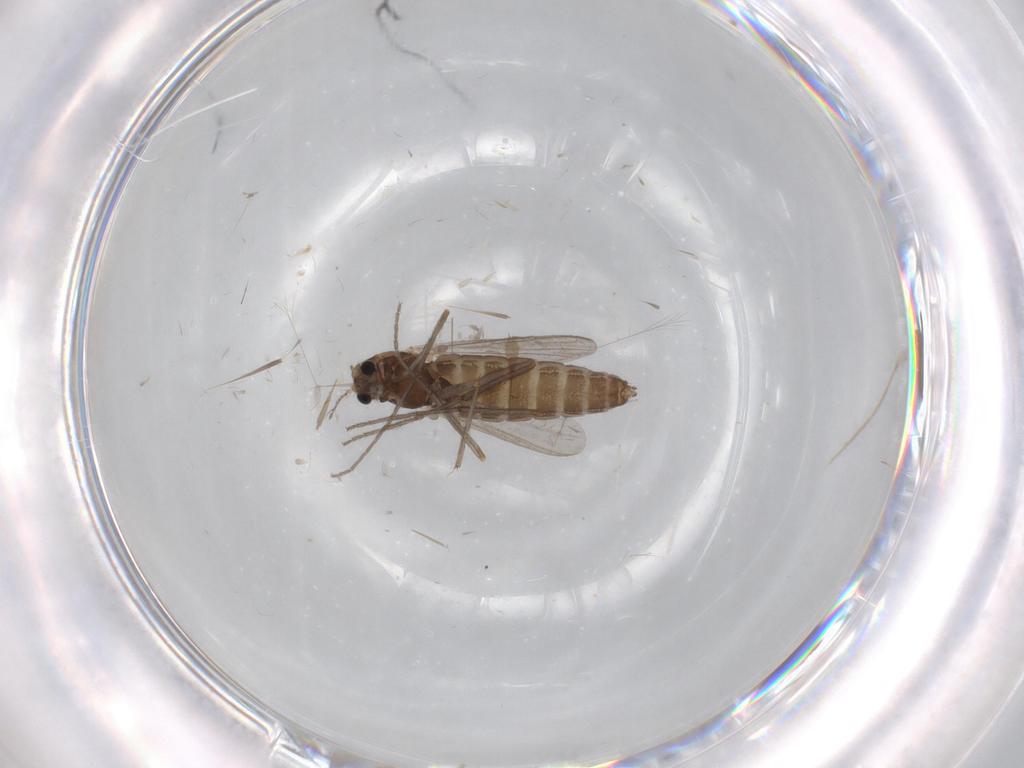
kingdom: Animalia
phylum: Arthropoda
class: Insecta
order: Diptera
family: Chironomidae
